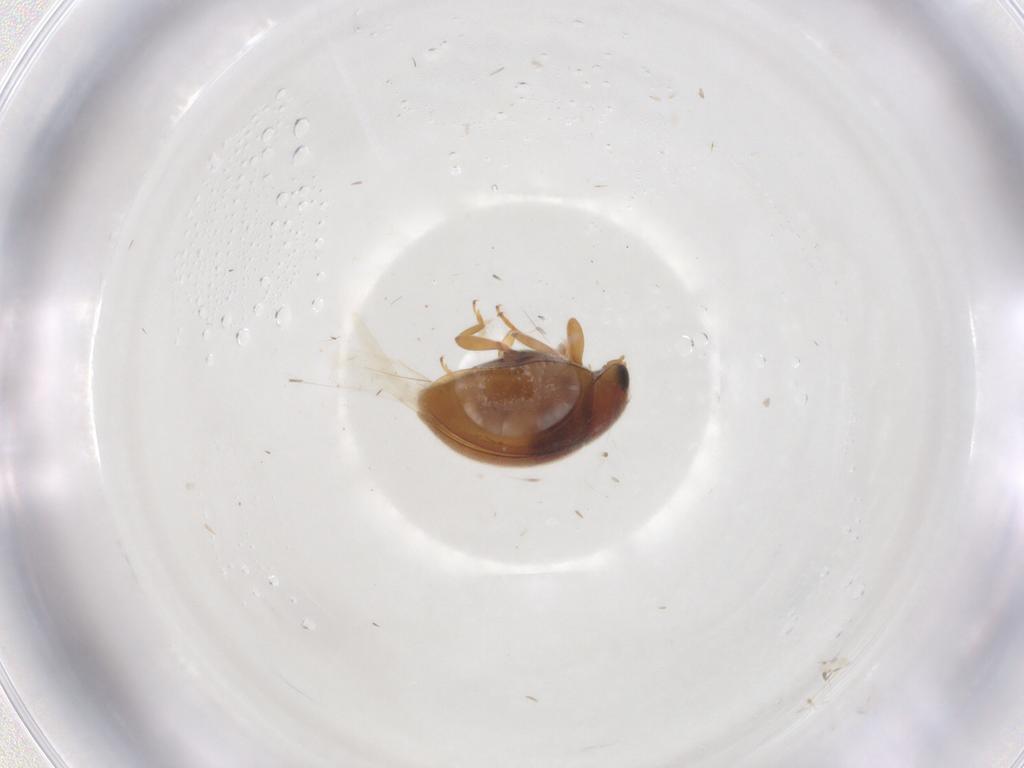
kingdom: Animalia
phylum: Arthropoda
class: Insecta
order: Coleoptera
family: Coccinellidae
